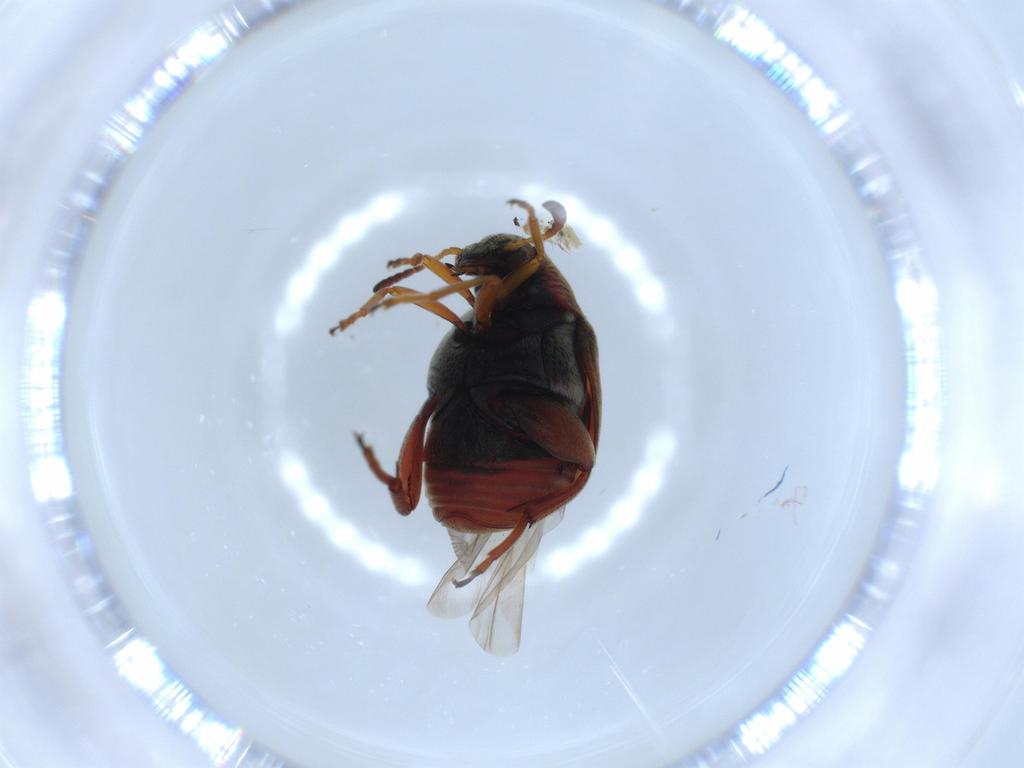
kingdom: Animalia
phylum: Arthropoda
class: Insecta
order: Coleoptera
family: Chrysomelidae
